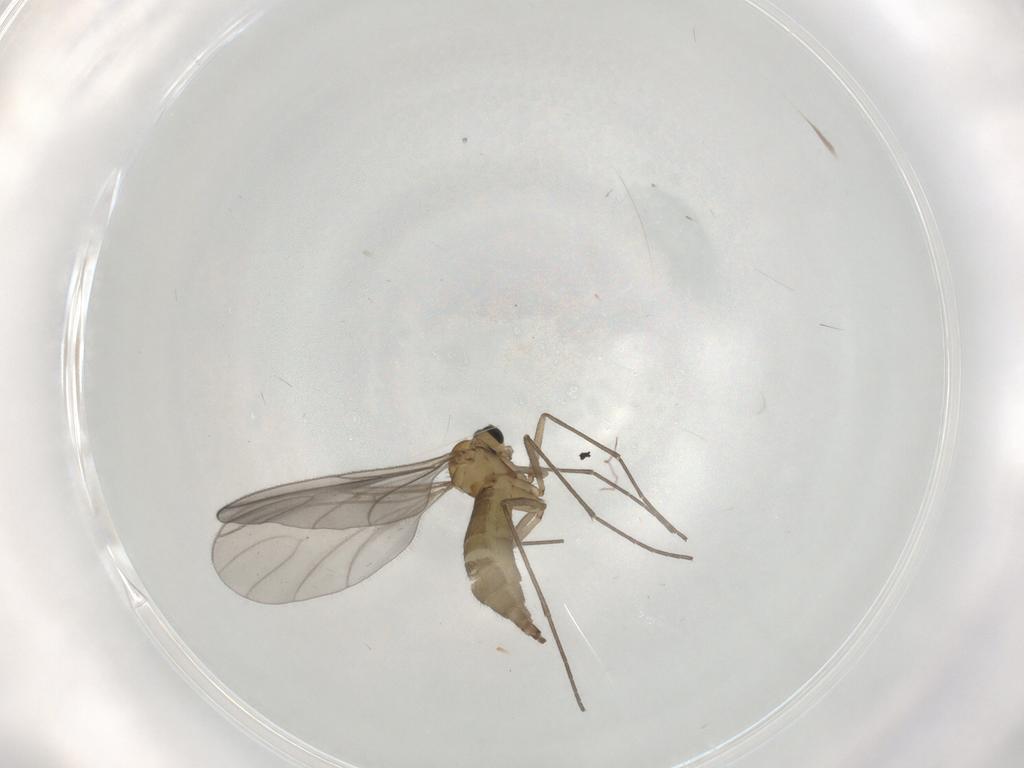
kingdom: Animalia
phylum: Arthropoda
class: Insecta
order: Diptera
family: Sciaridae
